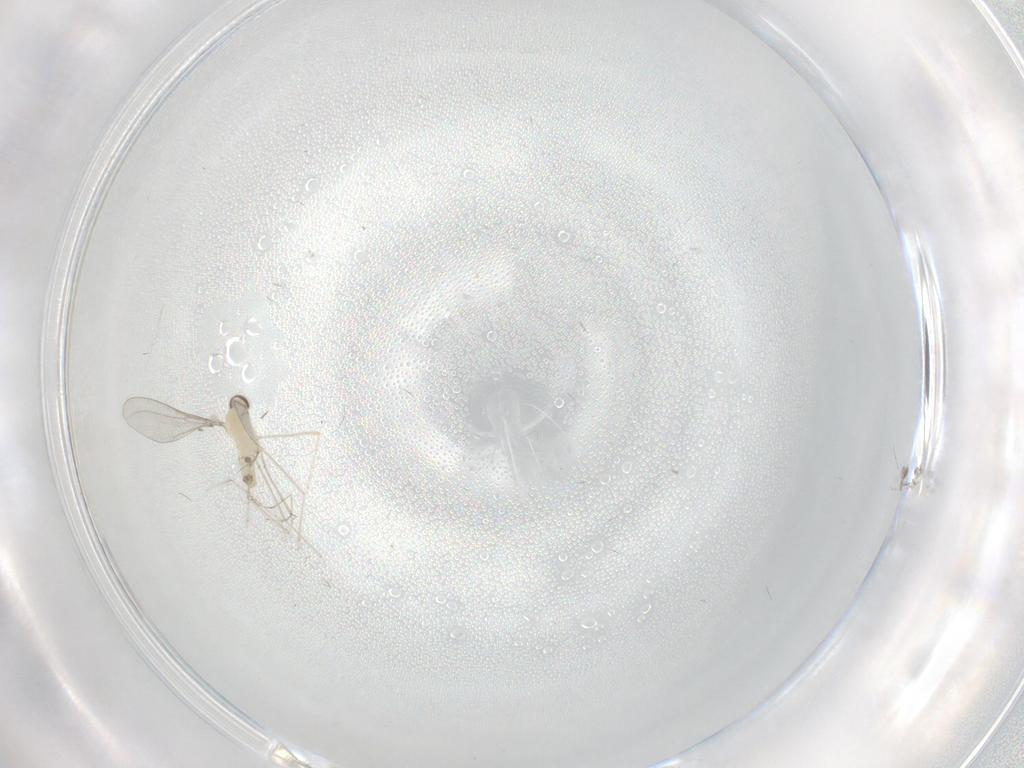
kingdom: Animalia
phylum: Arthropoda
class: Insecta
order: Diptera
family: Cecidomyiidae
